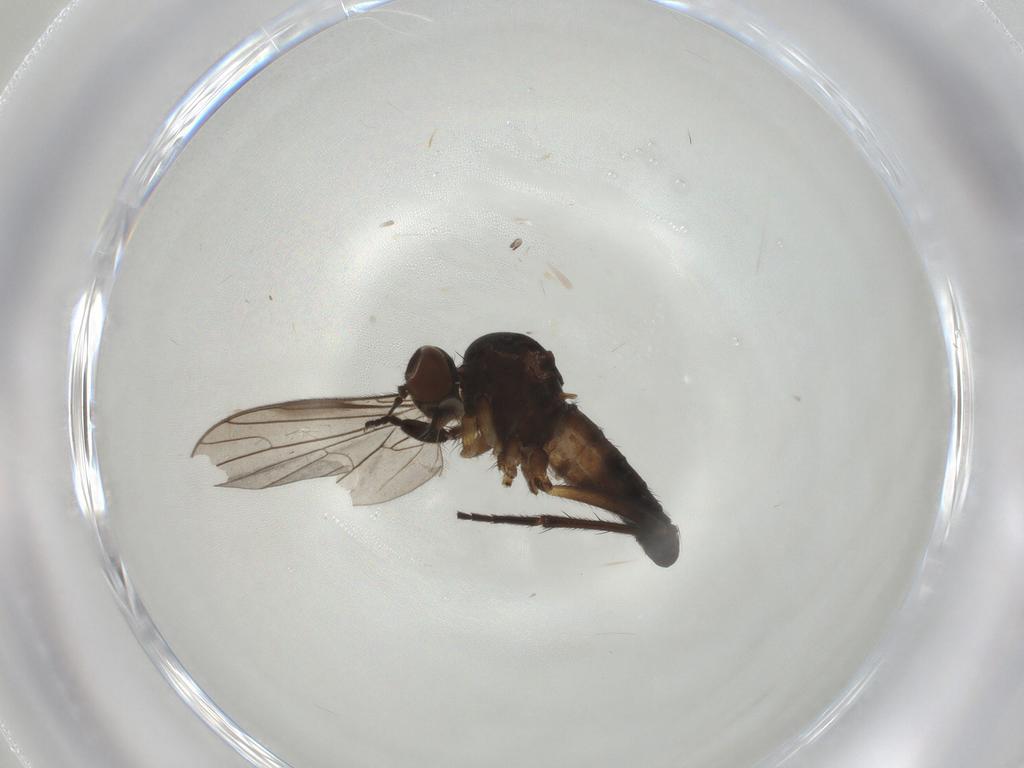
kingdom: Animalia
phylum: Arthropoda
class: Insecta
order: Diptera
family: Empididae
